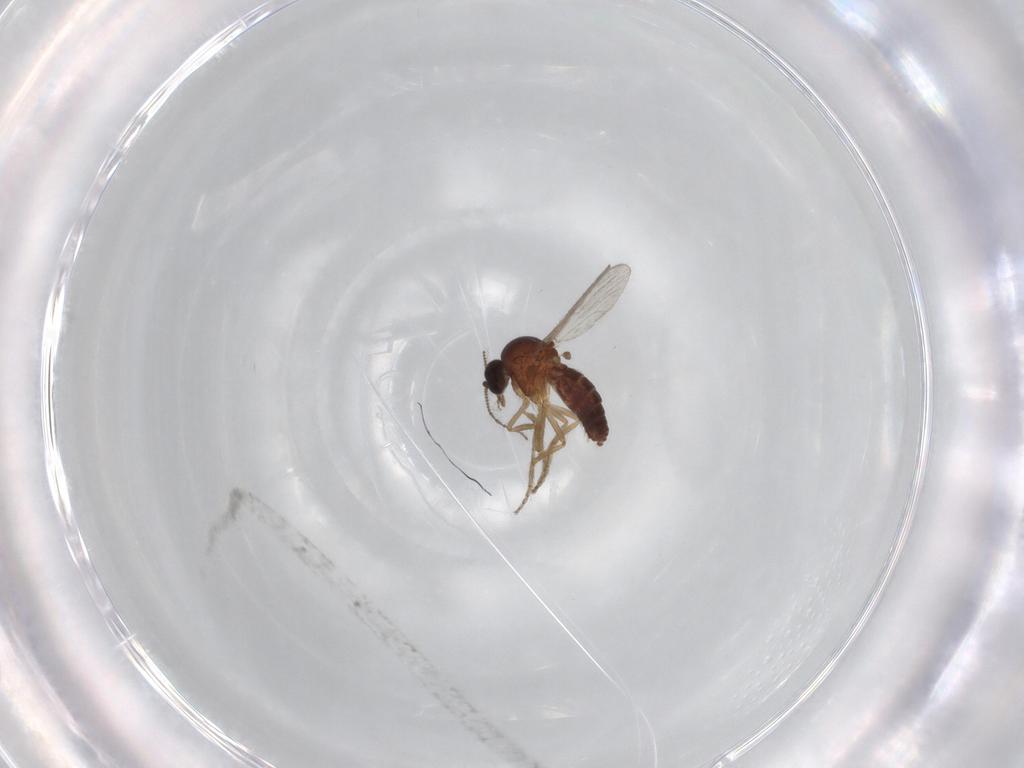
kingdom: Animalia
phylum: Arthropoda
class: Insecta
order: Diptera
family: Ceratopogonidae
